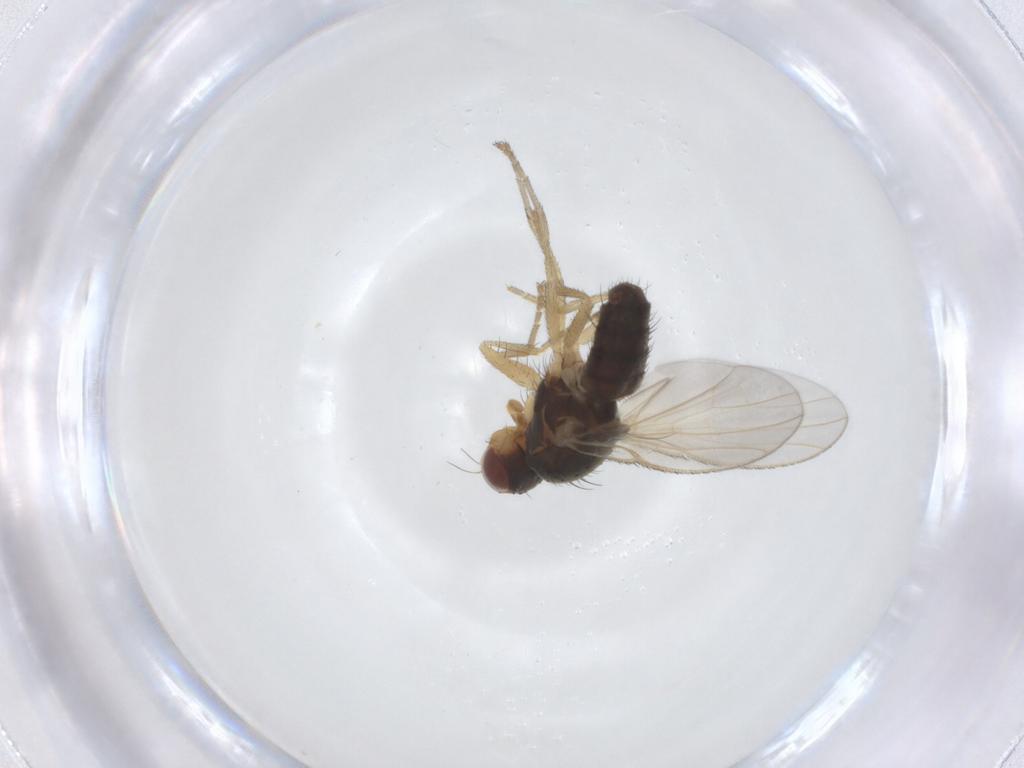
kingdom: Animalia
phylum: Arthropoda
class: Insecta
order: Diptera
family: Heleomyzidae
